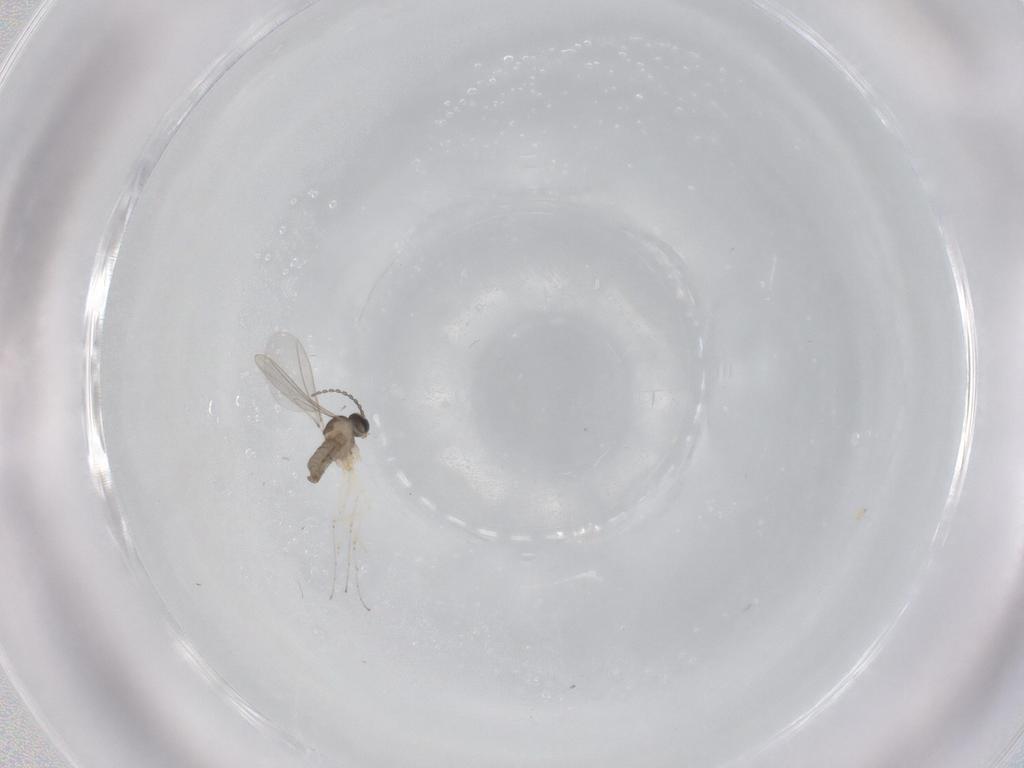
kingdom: Animalia
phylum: Arthropoda
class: Insecta
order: Diptera
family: Cecidomyiidae
